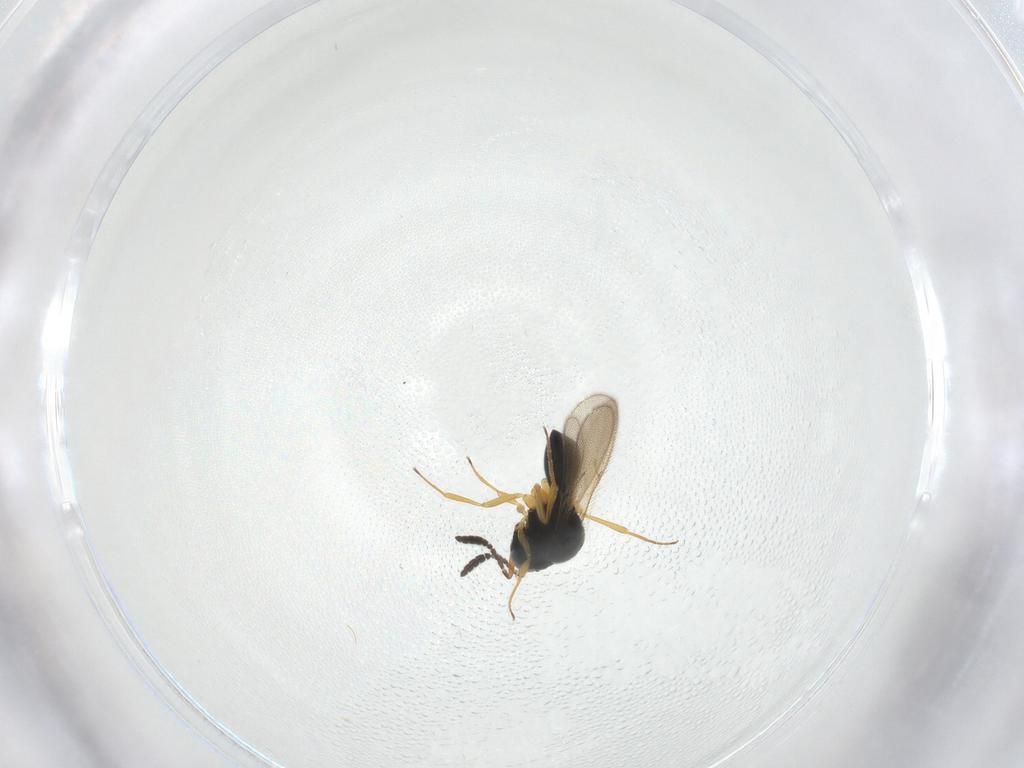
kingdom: Animalia
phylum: Arthropoda
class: Insecta
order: Hymenoptera
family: Scelionidae
